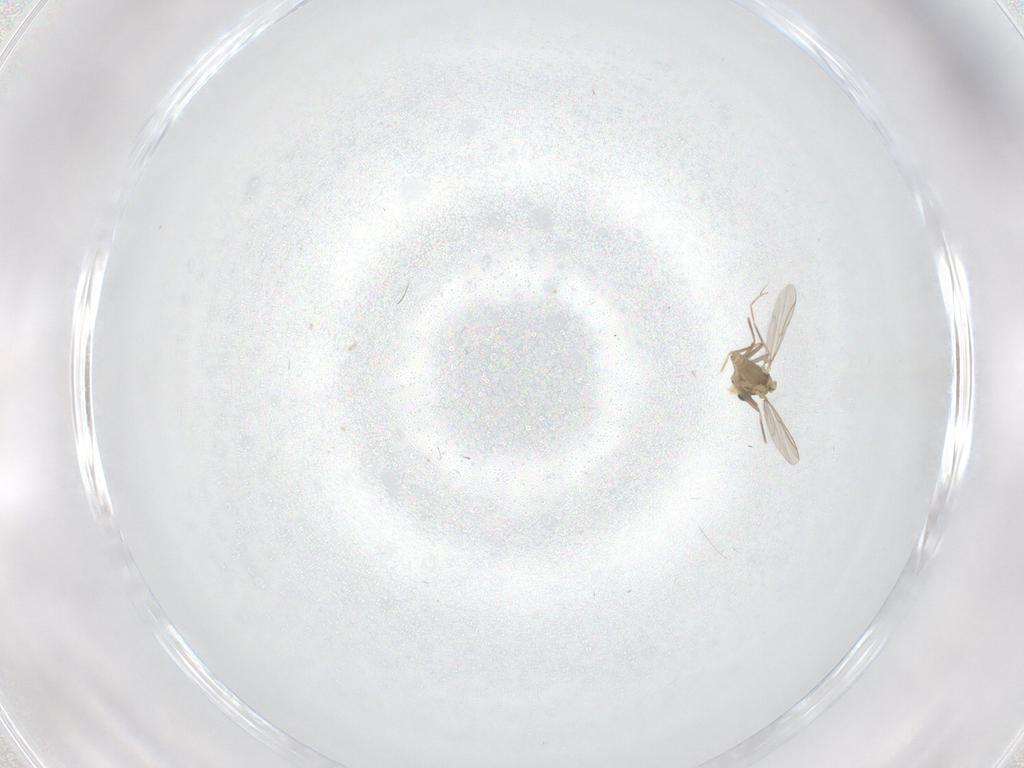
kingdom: Animalia
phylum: Arthropoda
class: Insecta
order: Diptera
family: Chironomidae
